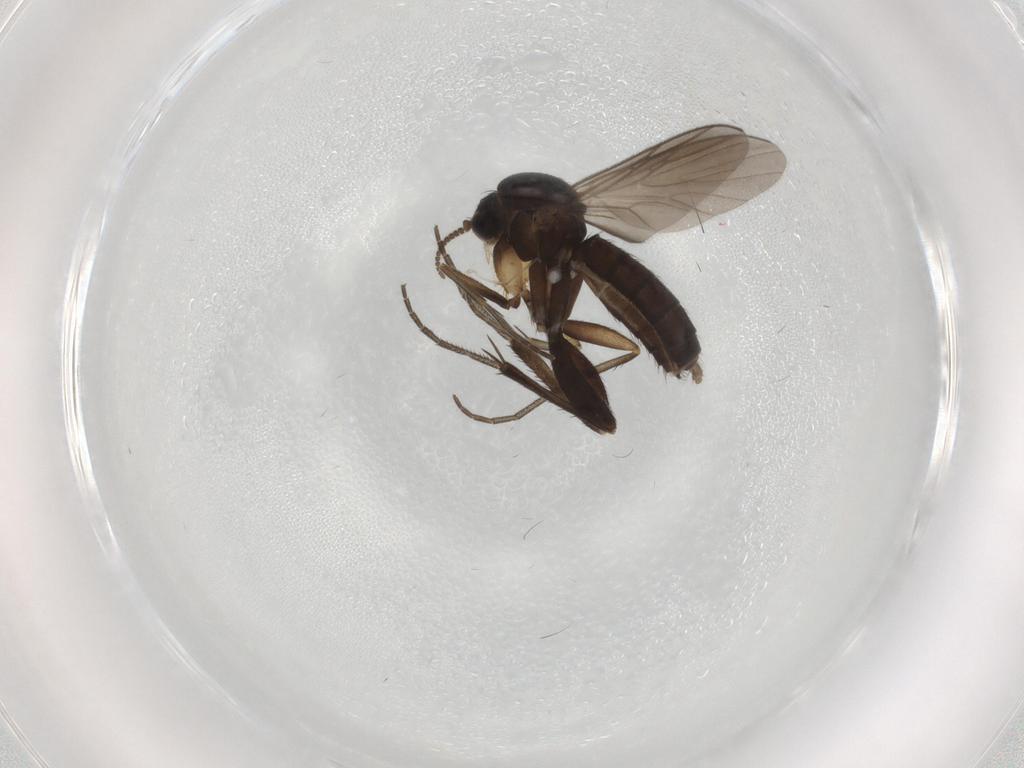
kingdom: Animalia
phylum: Arthropoda
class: Insecta
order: Diptera
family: Cecidomyiidae
